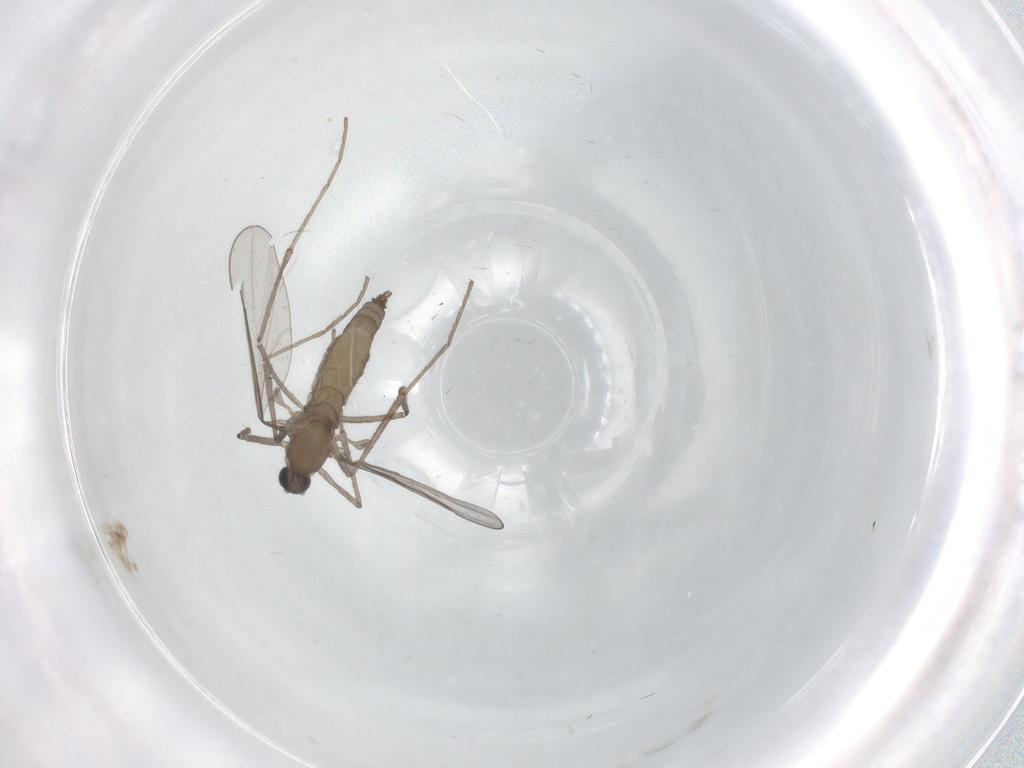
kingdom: Animalia
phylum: Arthropoda
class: Insecta
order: Diptera
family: Cecidomyiidae
